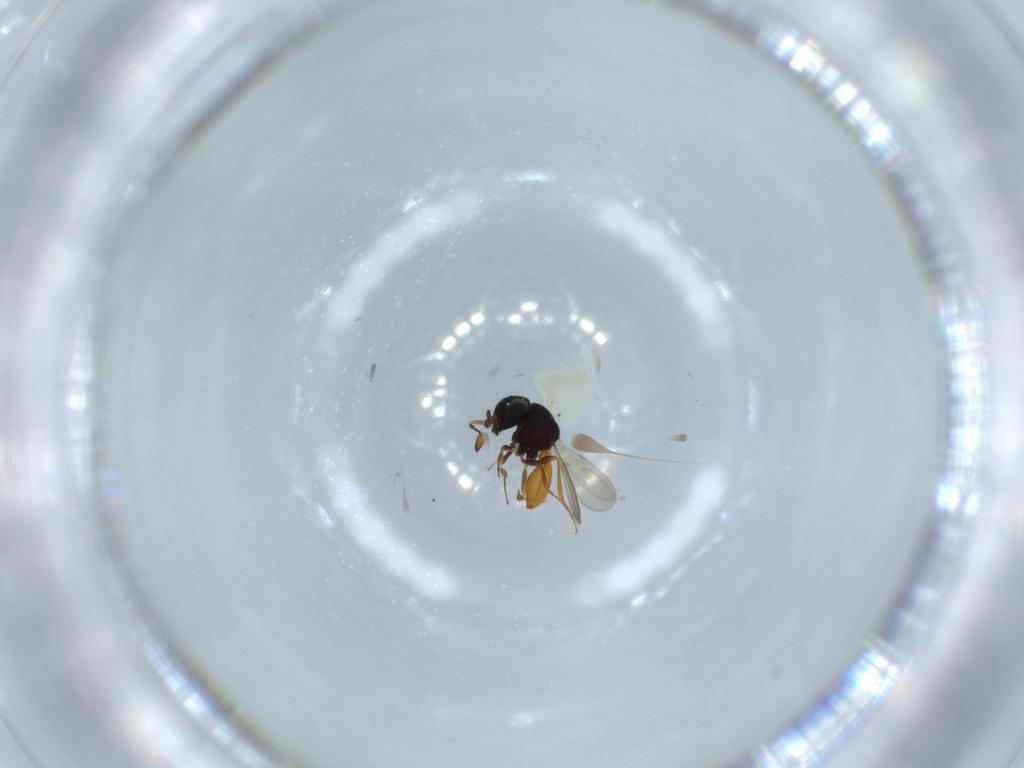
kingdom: Animalia
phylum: Arthropoda
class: Insecta
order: Hymenoptera
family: Scelionidae
